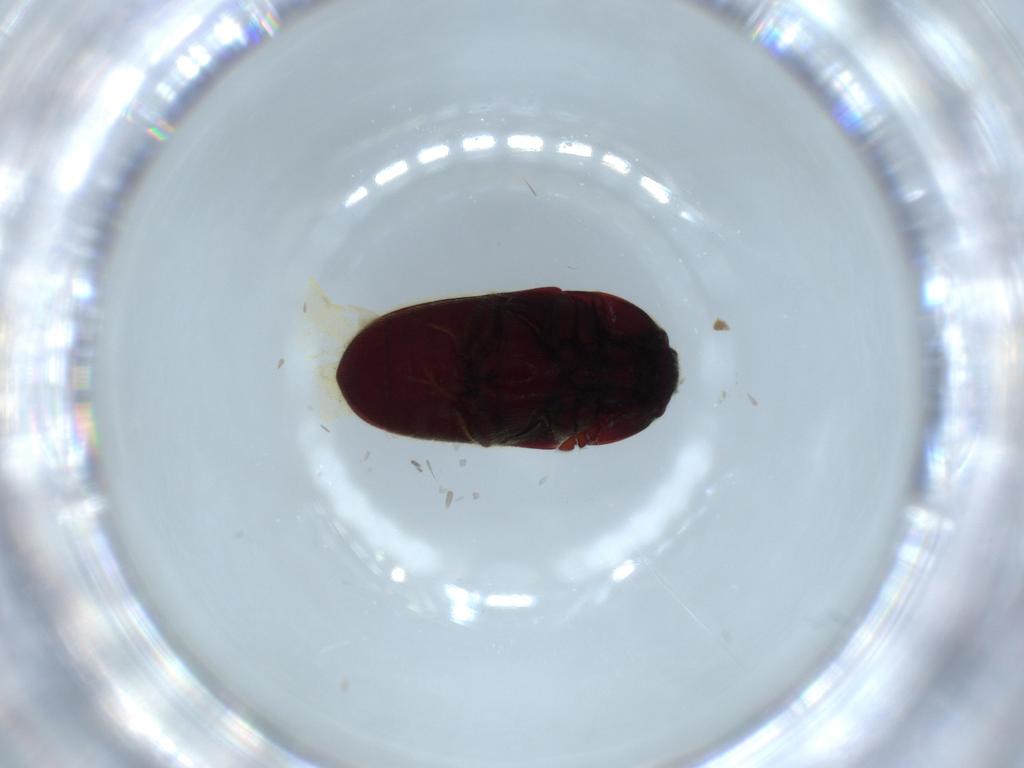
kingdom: Animalia
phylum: Arthropoda
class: Insecta
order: Coleoptera
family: Throscidae
